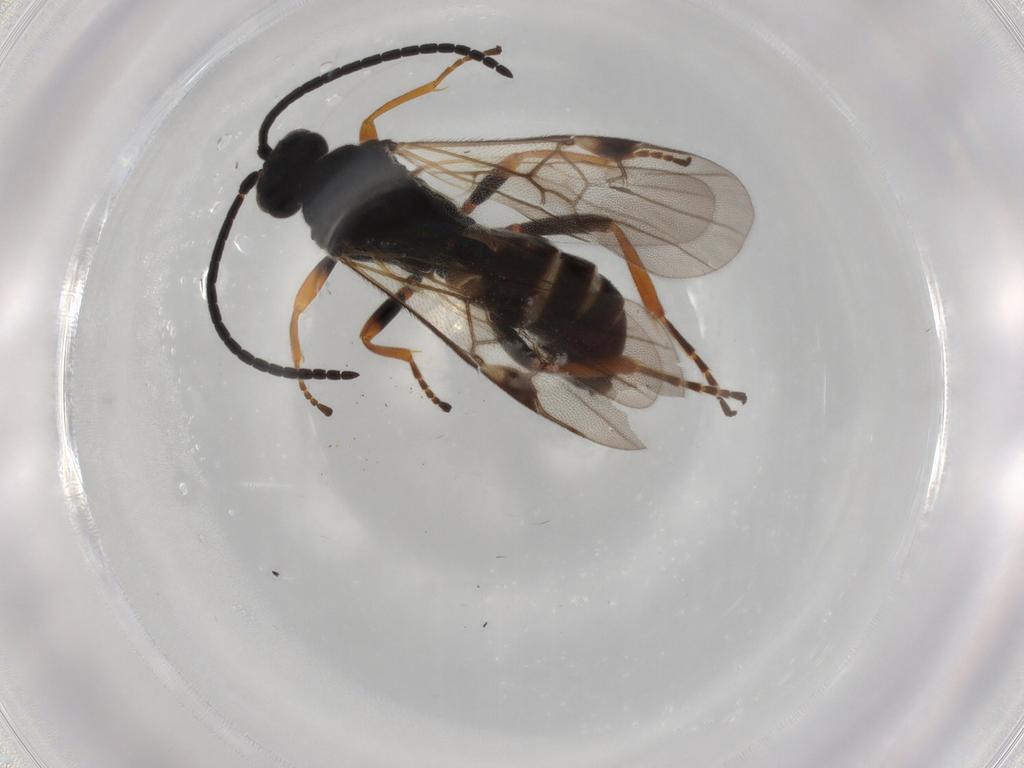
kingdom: Animalia
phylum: Arthropoda
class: Insecta
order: Hymenoptera
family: Braconidae
